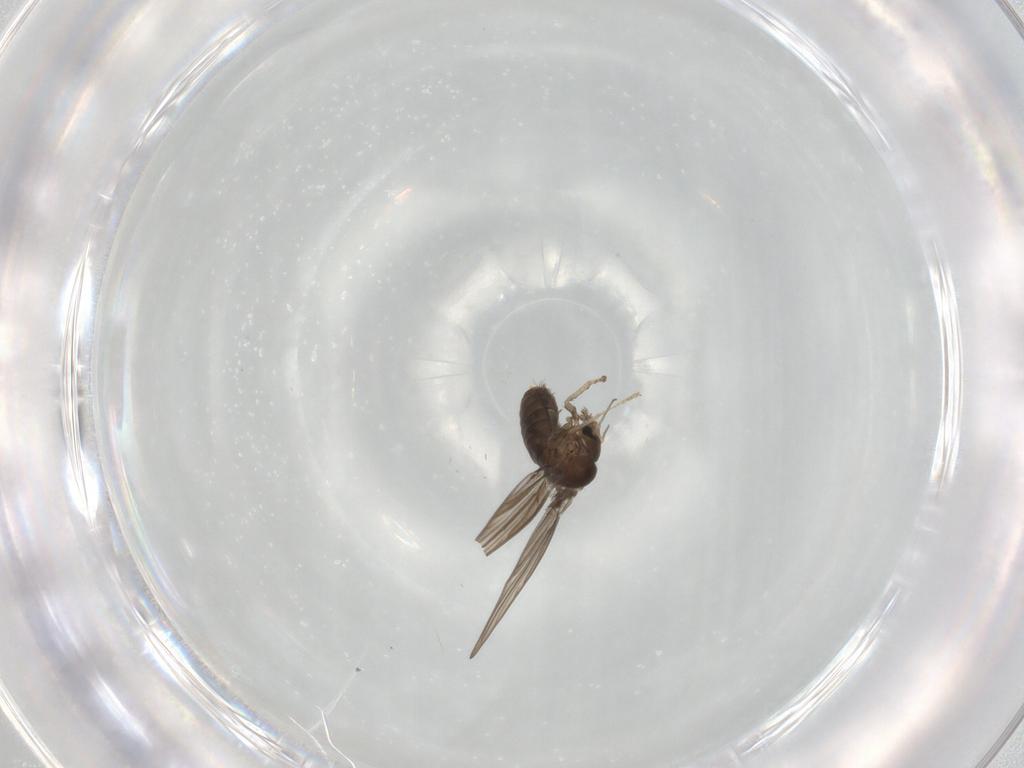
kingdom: Animalia
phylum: Arthropoda
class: Insecta
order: Diptera
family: Psychodidae
